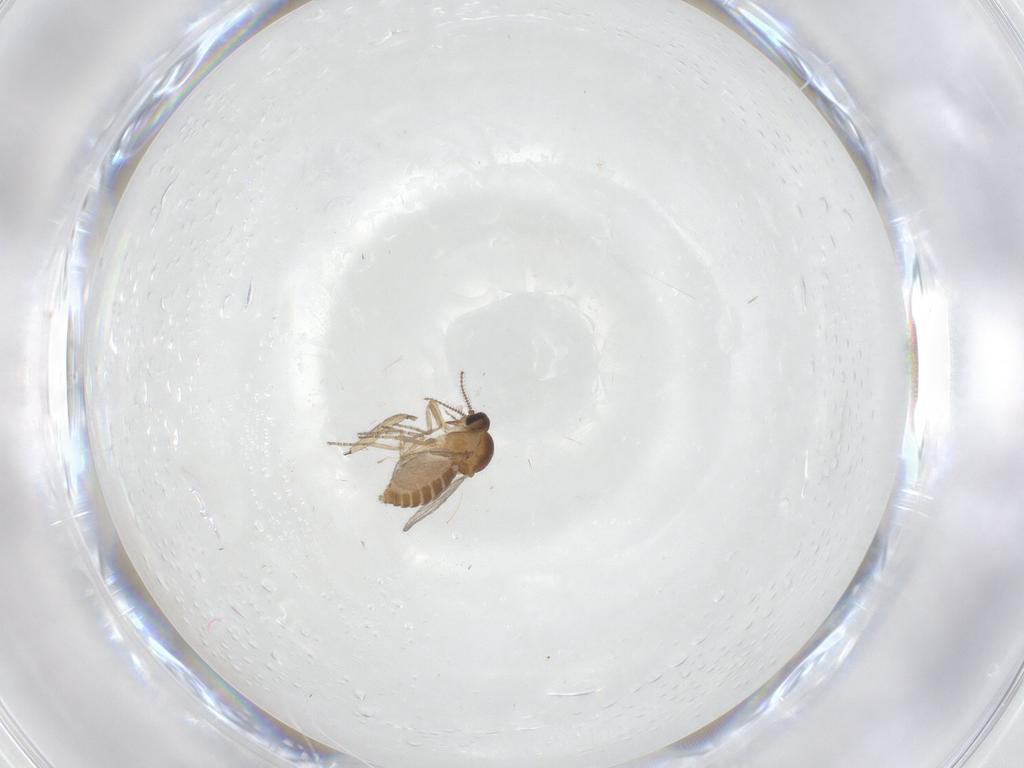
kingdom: Animalia
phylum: Arthropoda
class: Insecta
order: Diptera
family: Sciaridae
